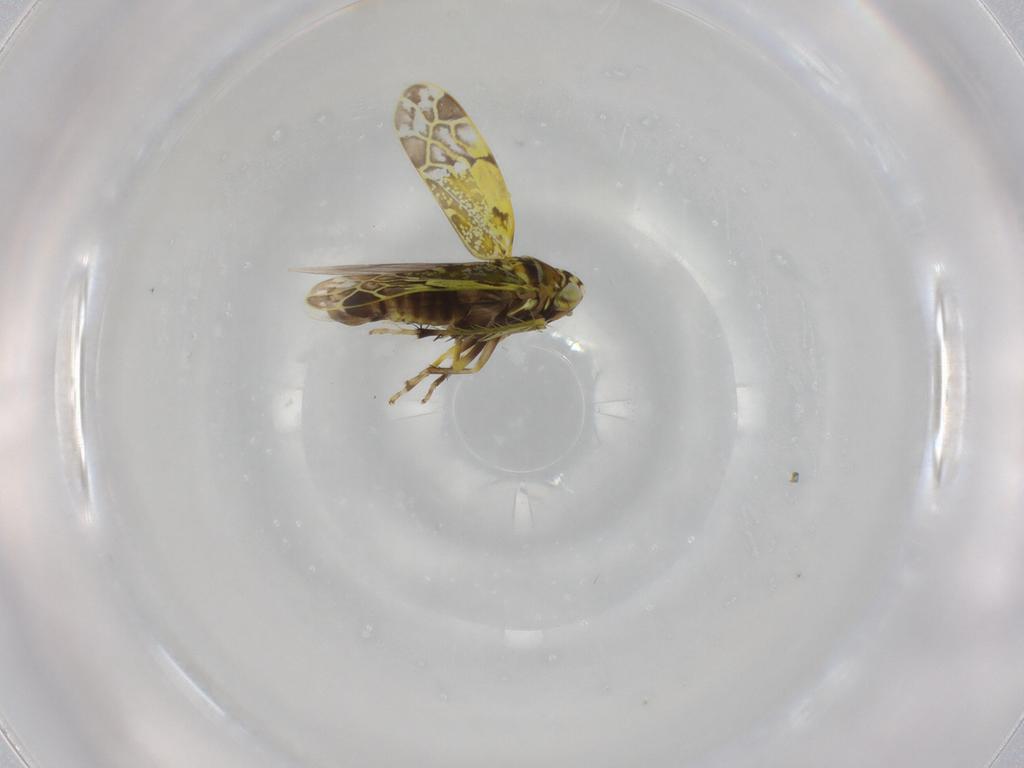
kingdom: Animalia
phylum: Arthropoda
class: Insecta
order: Hemiptera
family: Cicadellidae
